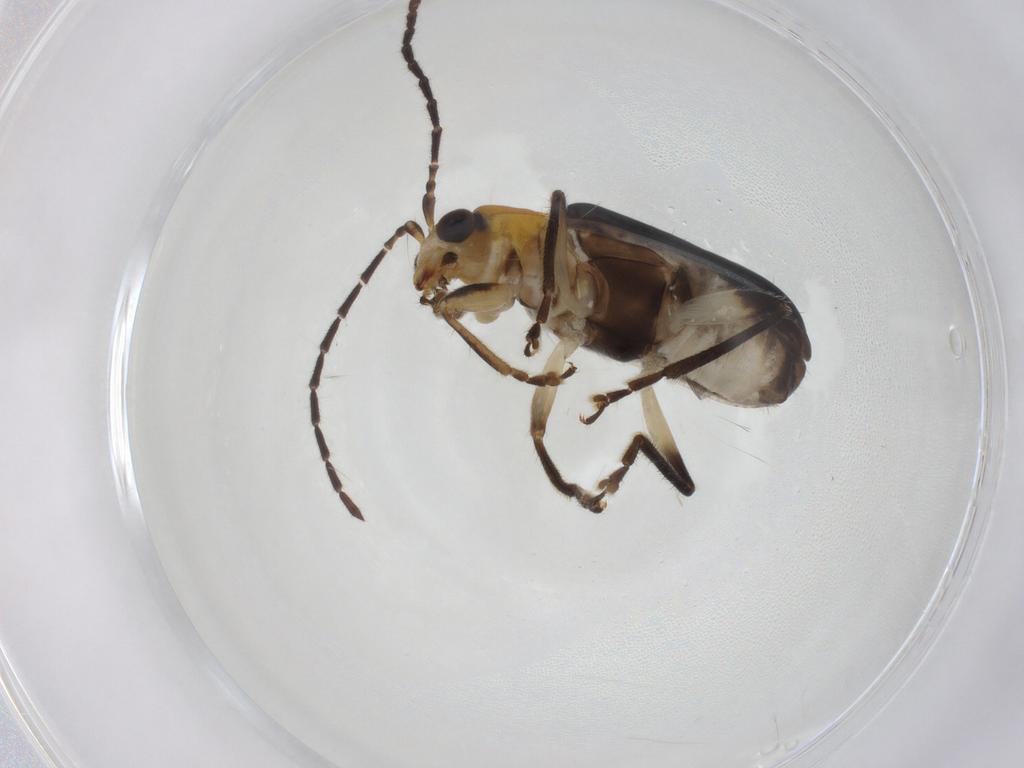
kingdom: Animalia
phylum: Arthropoda
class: Insecta
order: Coleoptera
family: Chrysomelidae
